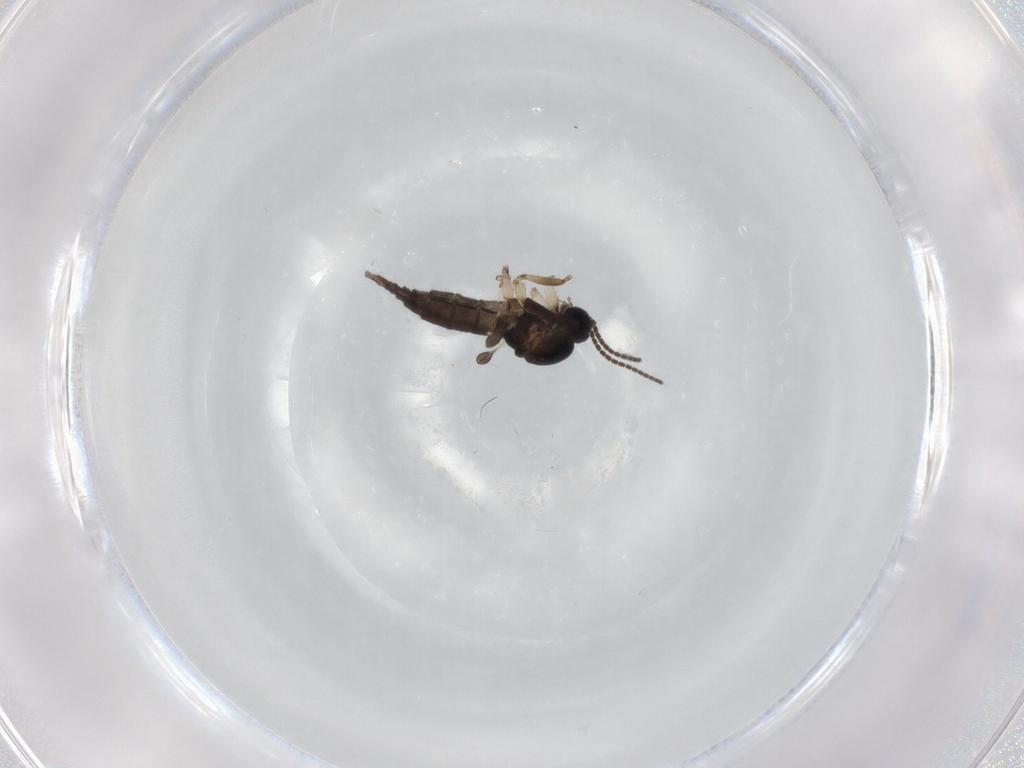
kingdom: Animalia
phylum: Arthropoda
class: Insecta
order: Diptera
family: Sciaridae
